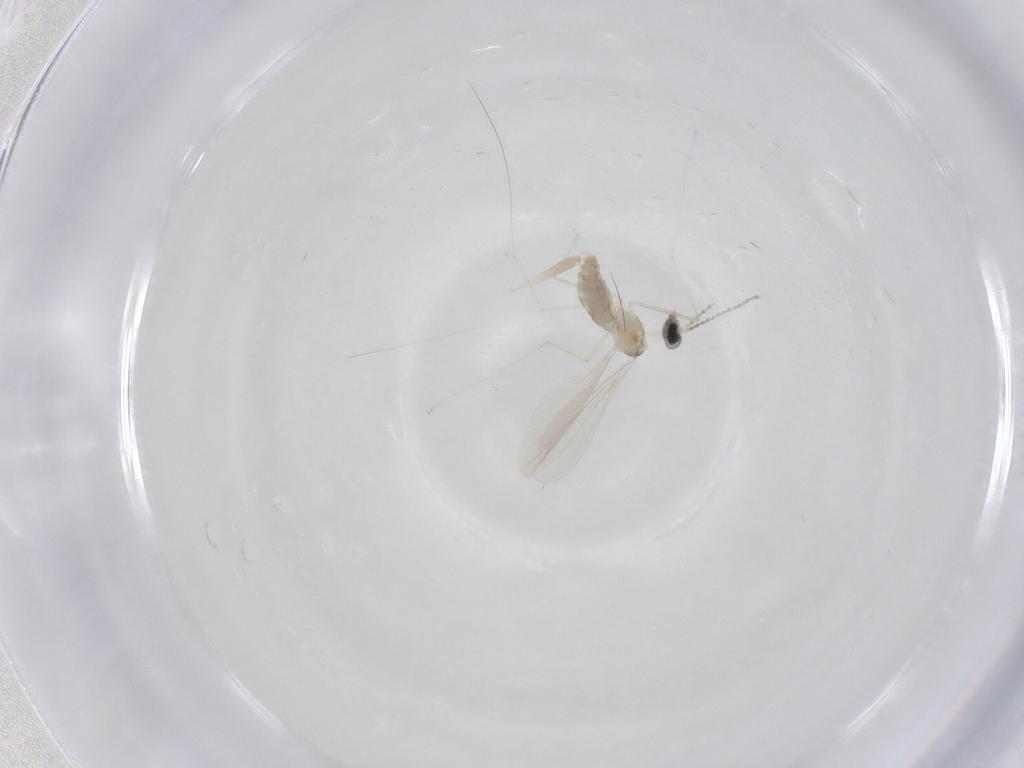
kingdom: Animalia
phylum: Arthropoda
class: Insecta
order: Diptera
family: Cecidomyiidae
